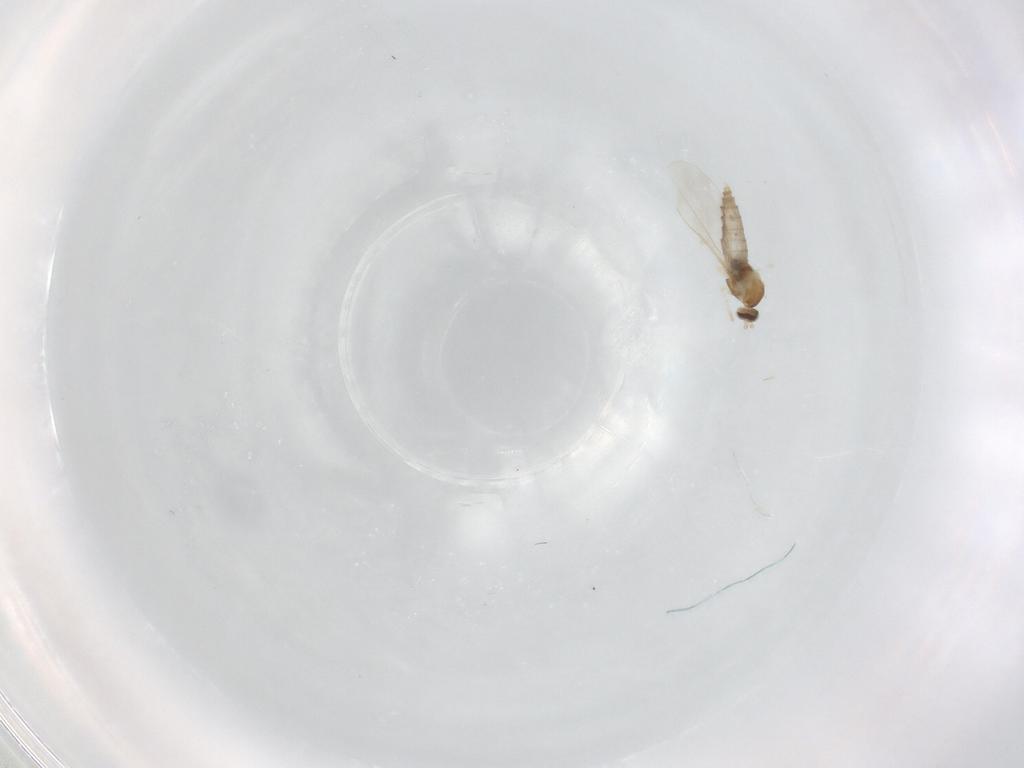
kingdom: Animalia
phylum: Arthropoda
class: Insecta
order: Diptera
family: Cecidomyiidae
